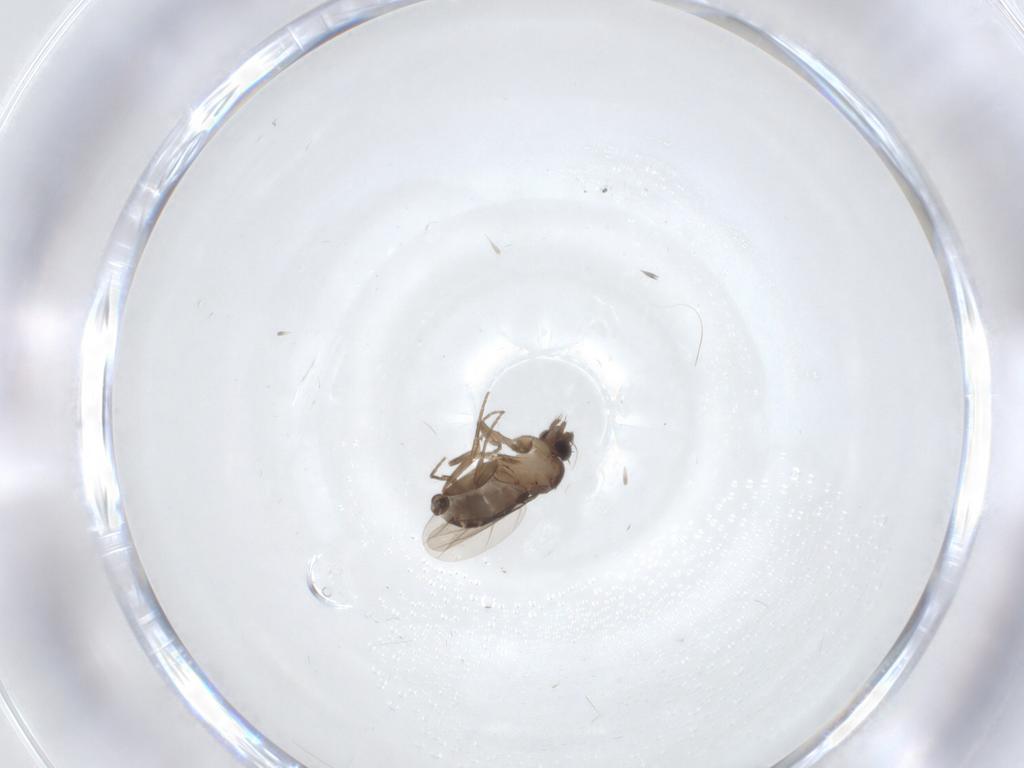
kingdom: Animalia
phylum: Arthropoda
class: Insecta
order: Diptera
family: Phoridae
